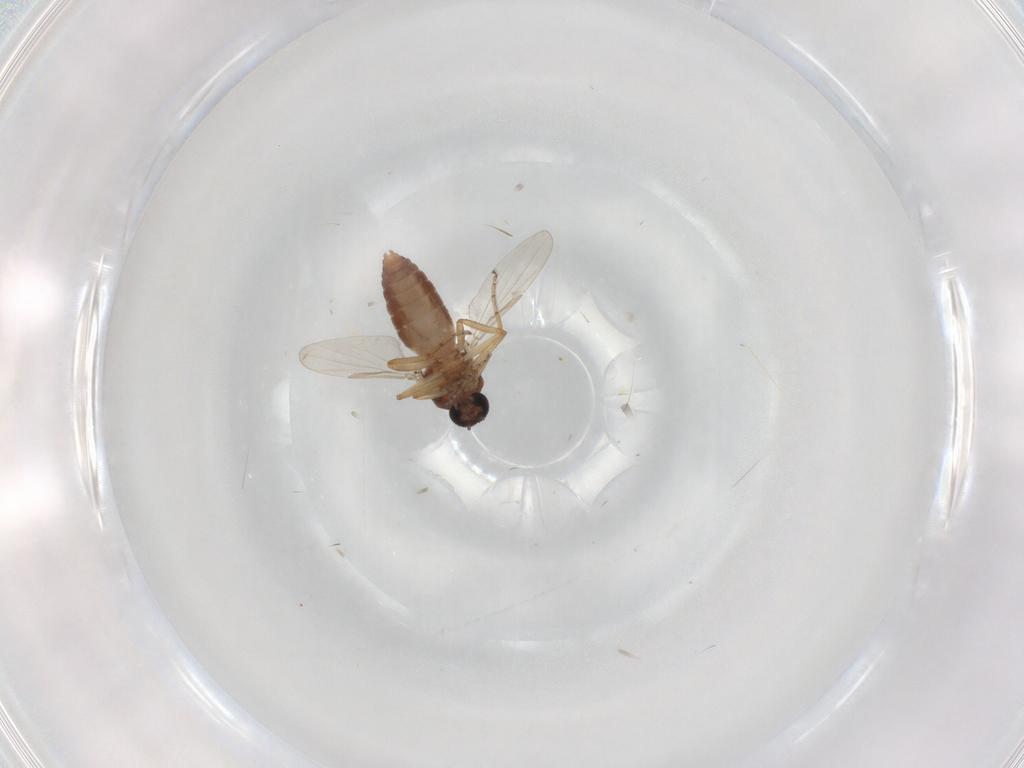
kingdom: Animalia
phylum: Arthropoda
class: Insecta
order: Diptera
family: Ceratopogonidae
